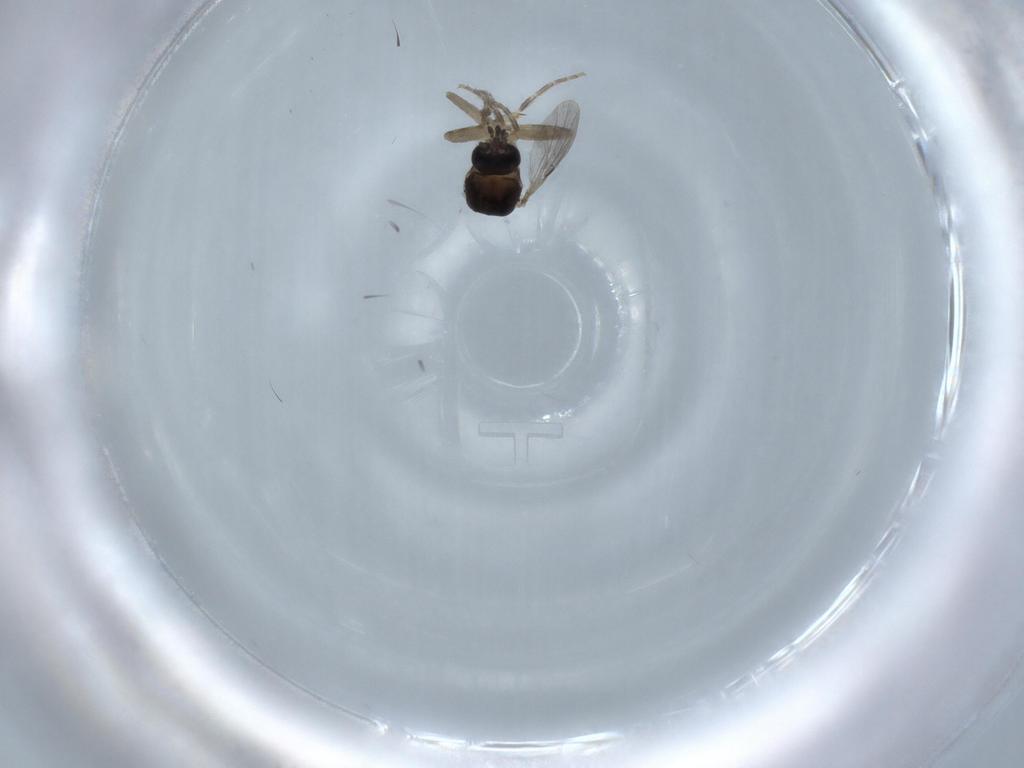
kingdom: Animalia
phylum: Arthropoda
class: Insecta
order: Diptera
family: Ceratopogonidae
